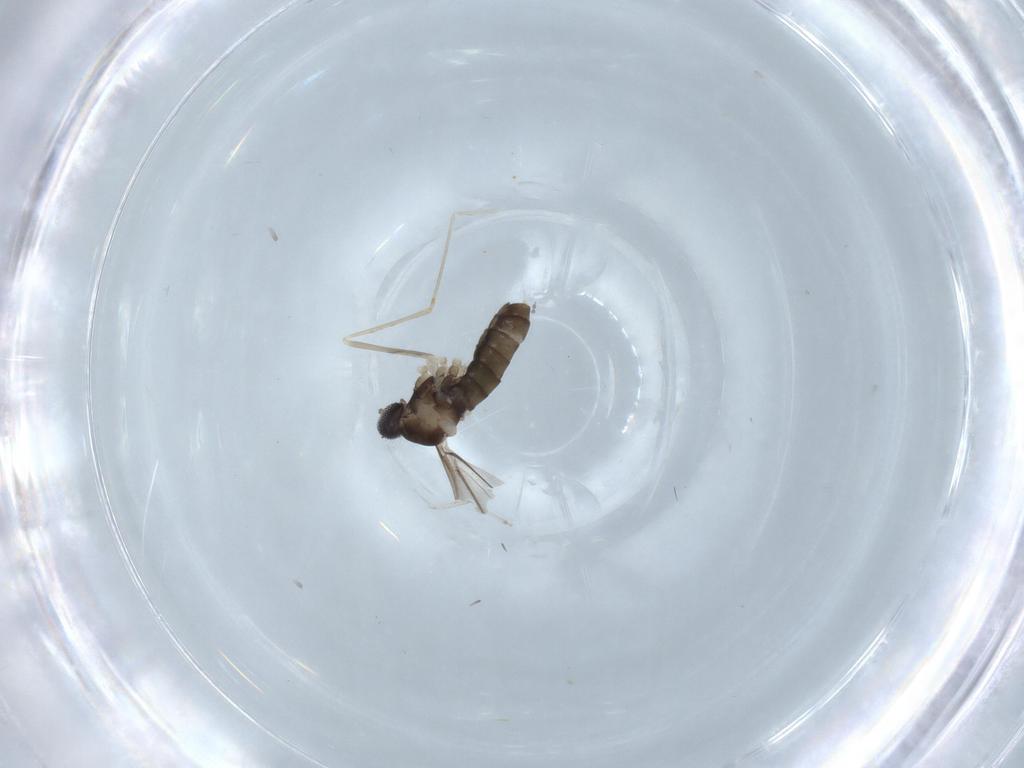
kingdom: Animalia
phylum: Arthropoda
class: Insecta
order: Diptera
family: Cecidomyiidae
